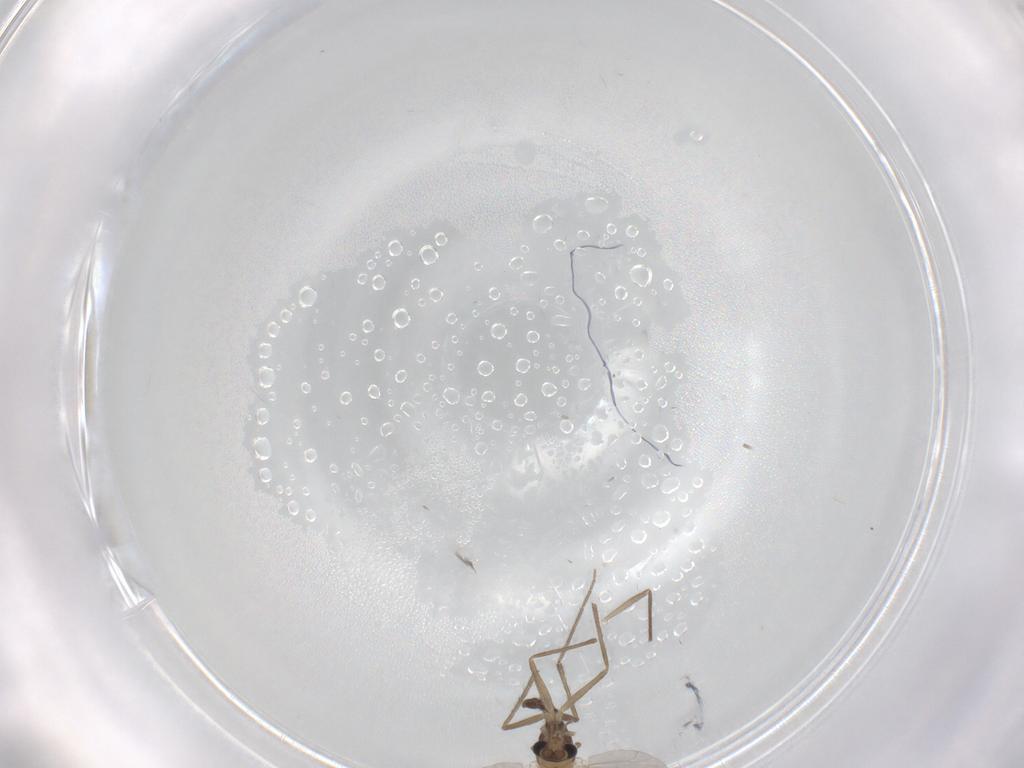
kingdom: Animalia
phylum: Arthropoda
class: Insecta
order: Diptera
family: Chironomidae
